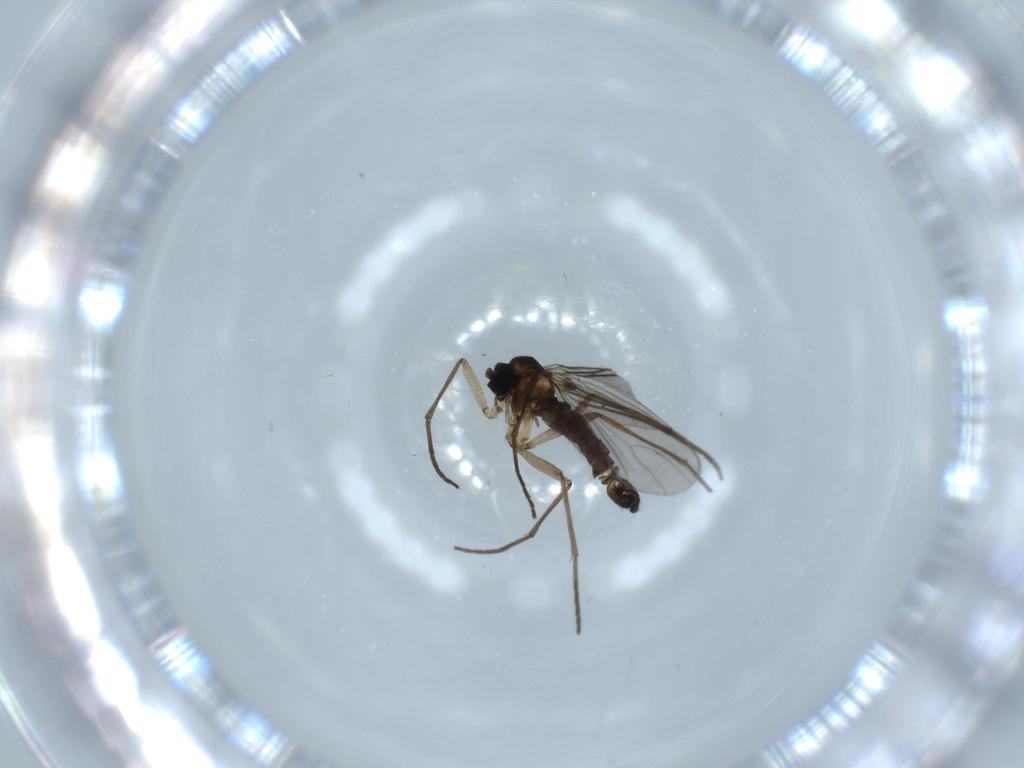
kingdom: Animalia
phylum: Arthropoda
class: Insecta
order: Diptera
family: Sciaridae
